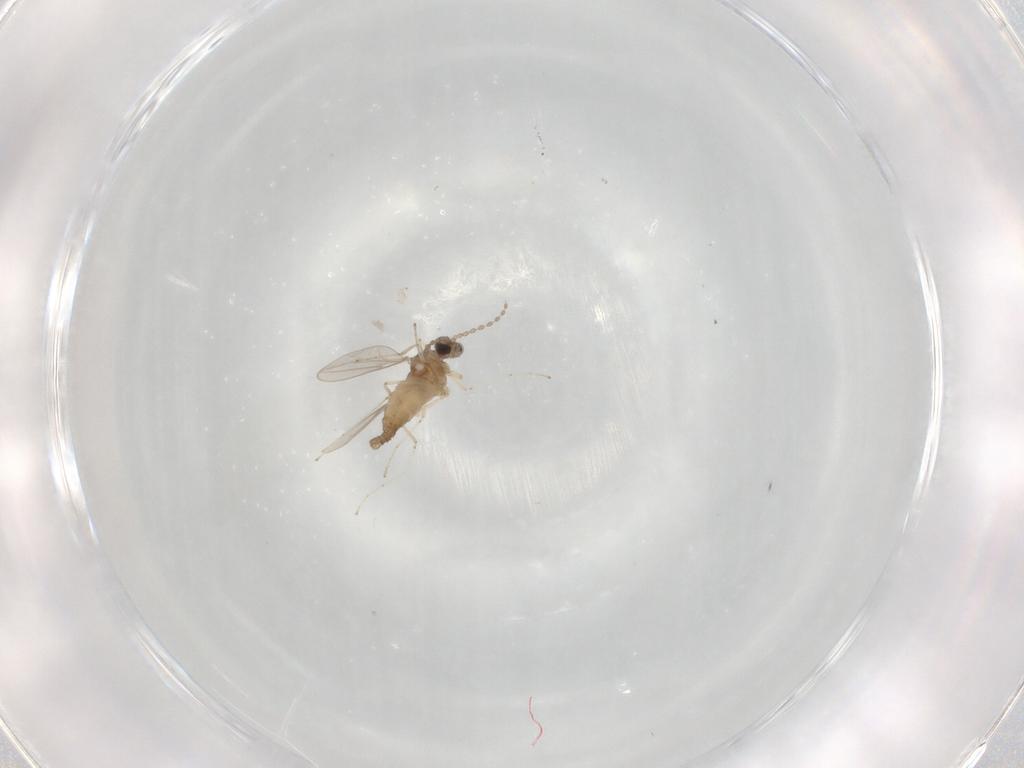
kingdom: Animalia
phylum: Arthropoda
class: Insecta
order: Diptera
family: Cecidomyiidae
